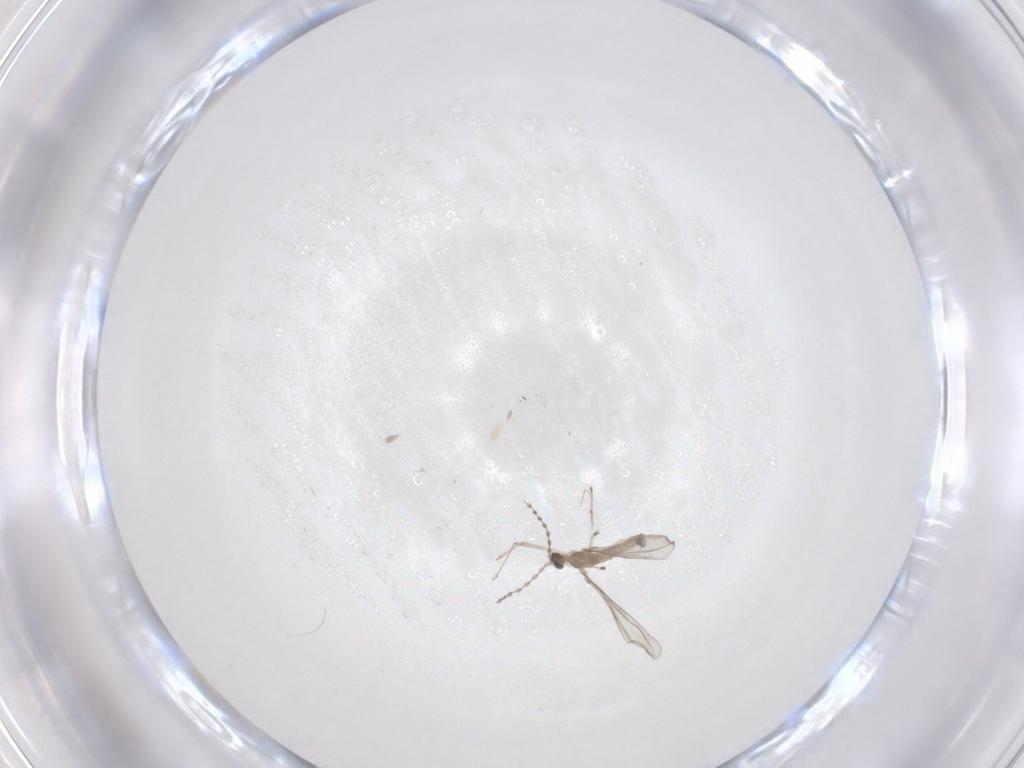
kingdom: Animalia
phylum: Arthropoda
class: Insecta
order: Diptera
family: Cecidomyiidae
